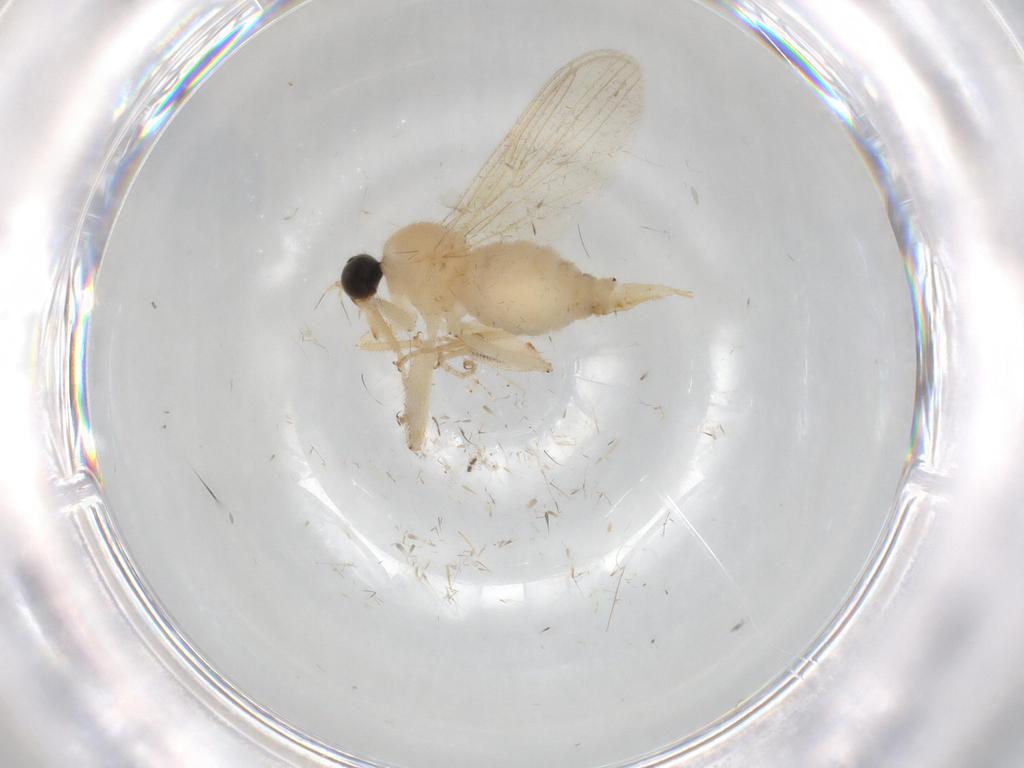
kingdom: Animalia
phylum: Arthropoda
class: Insecta
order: Diptera
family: Hybotidae
